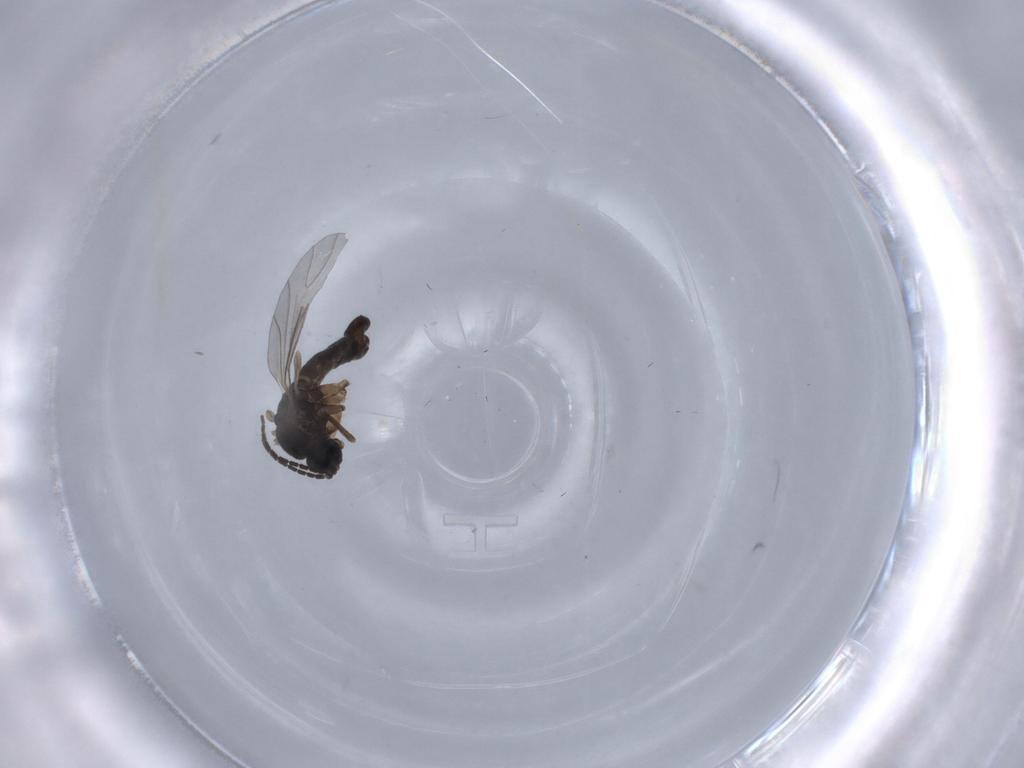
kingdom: Animalia
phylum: Arthropoda
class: Insecta
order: Diptera
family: Sciaridae
